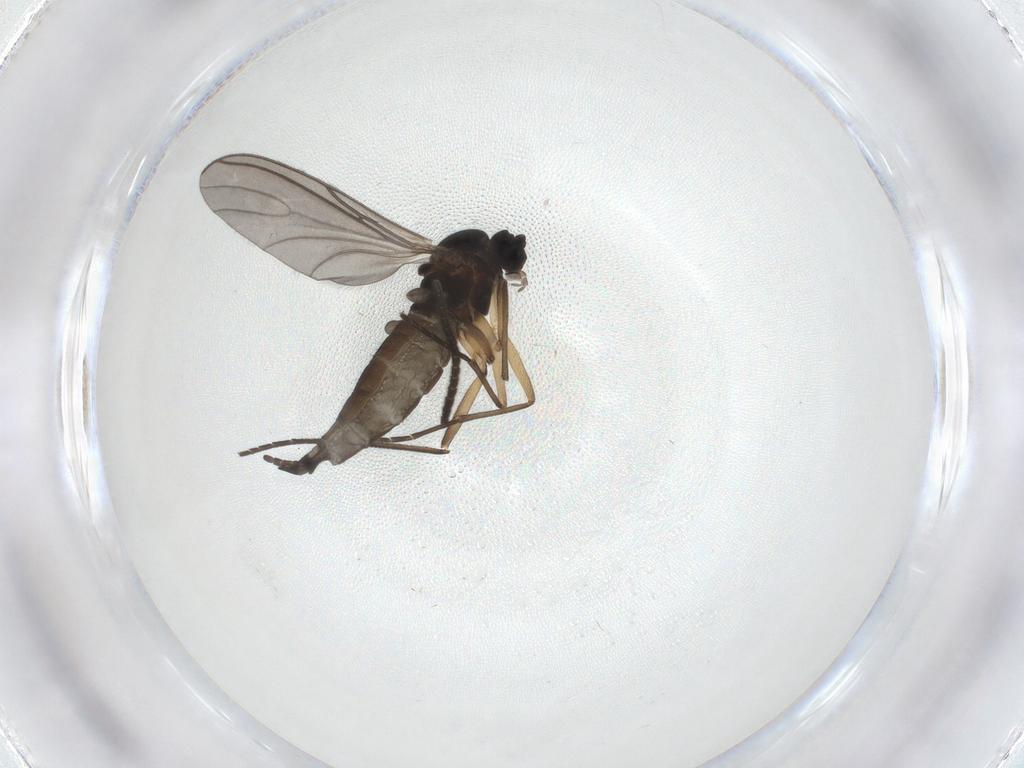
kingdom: Animalia
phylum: Arthropoda
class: Insecta
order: Diptera
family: Sciaridae
